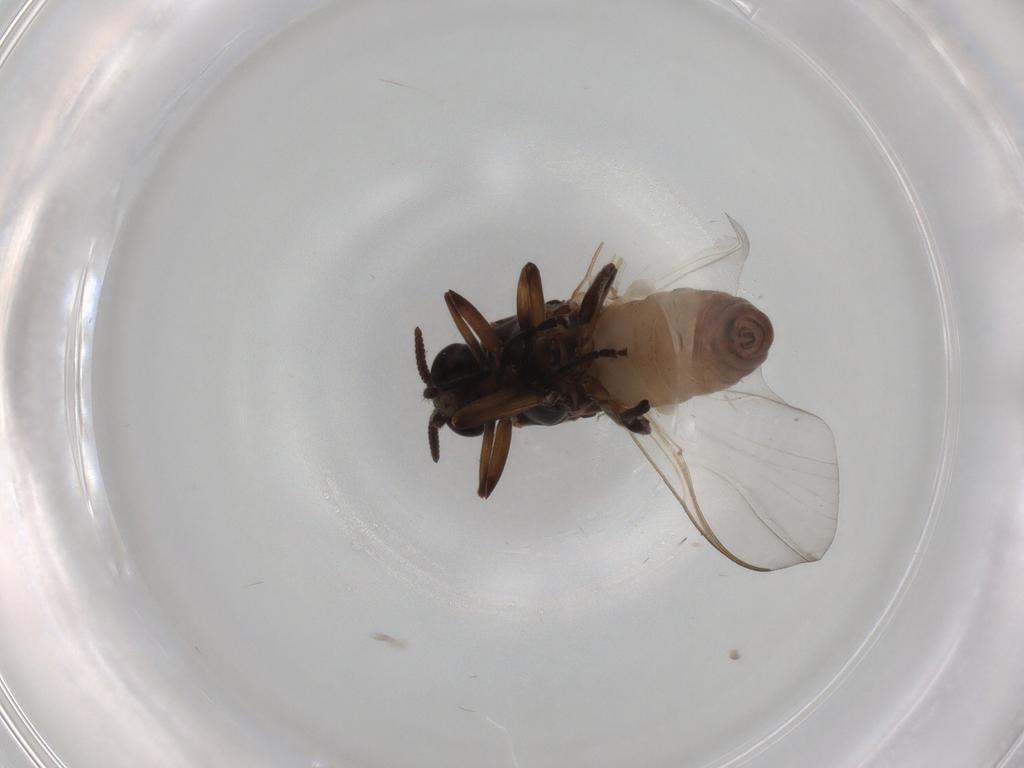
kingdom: Animalia
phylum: Arthropoda
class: Insecta
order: Diptera
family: Simuliidae
